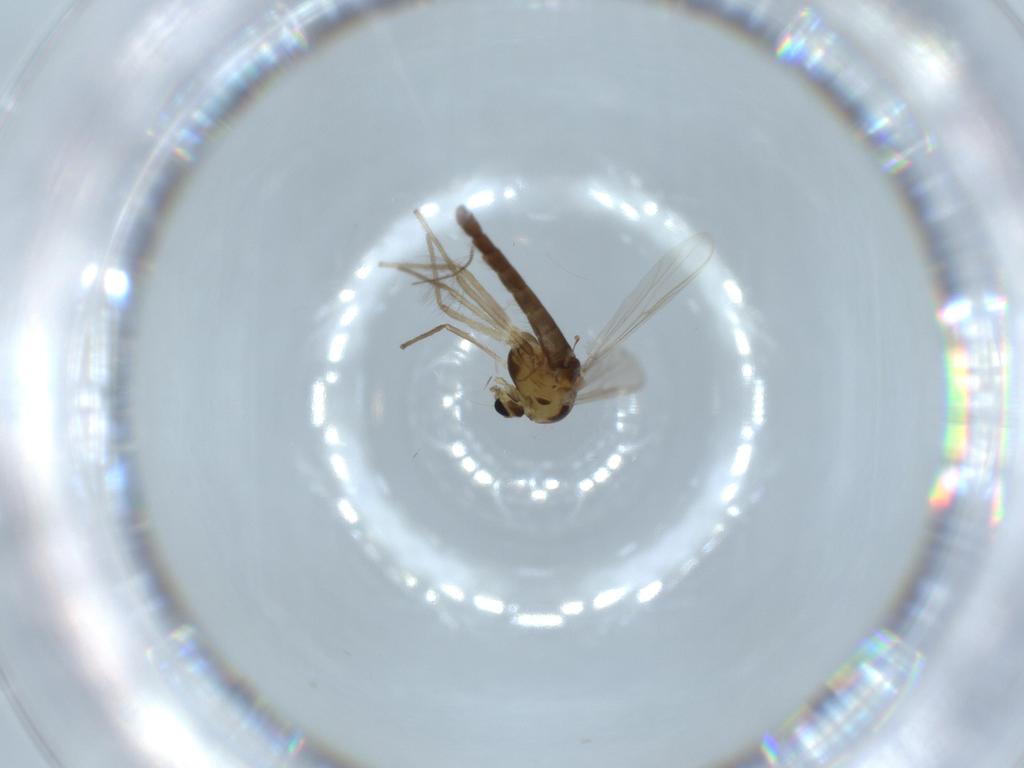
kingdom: Animalia
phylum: Arthropoda
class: Insecta
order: Diptera
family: Chironomidae
